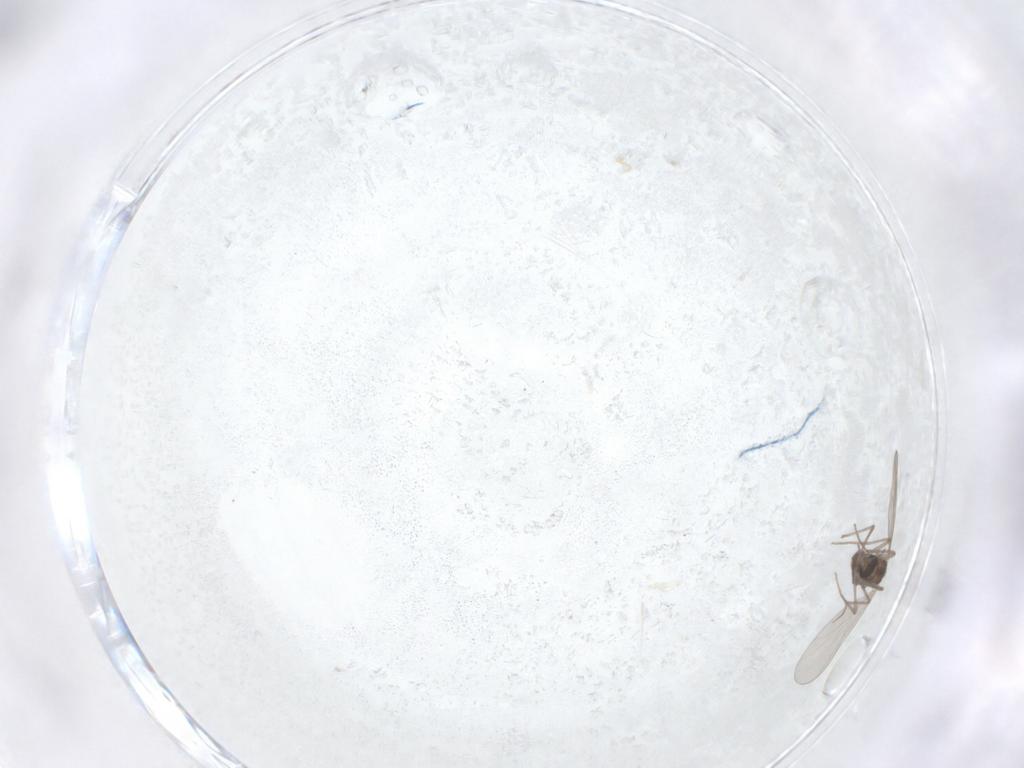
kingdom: Animalia
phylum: Arthropoda
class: Insecta
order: Diptera
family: Chironomidae
